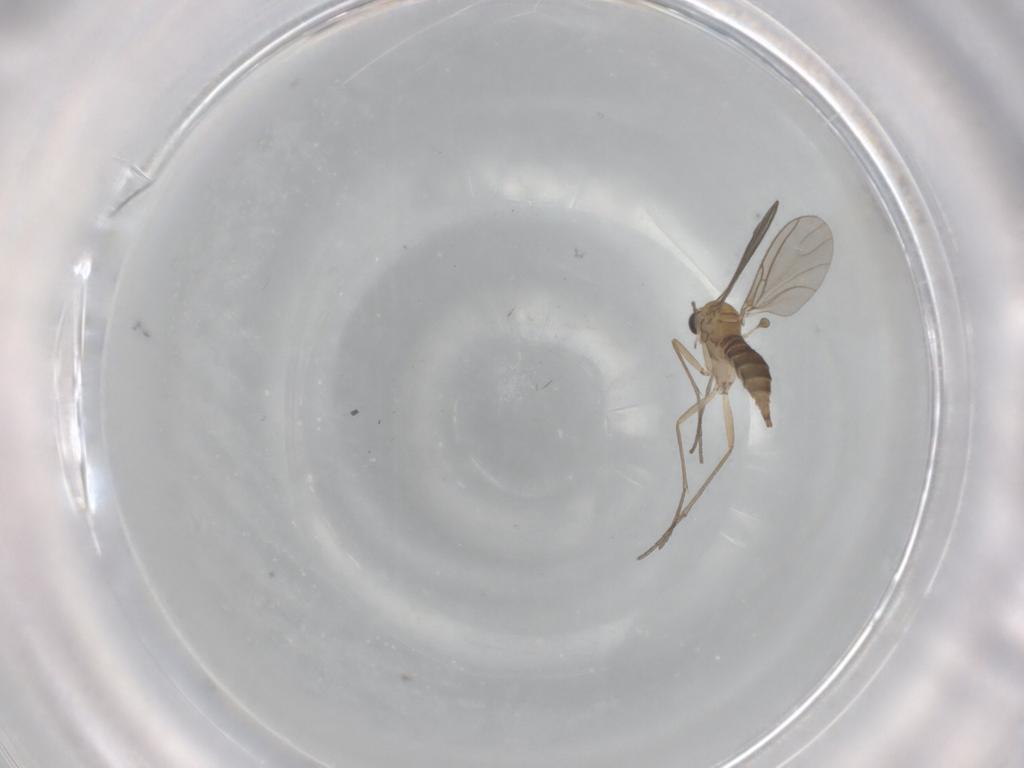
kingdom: Animalia
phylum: Arthropoda
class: Insecta
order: Diptera
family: Sciaridae
